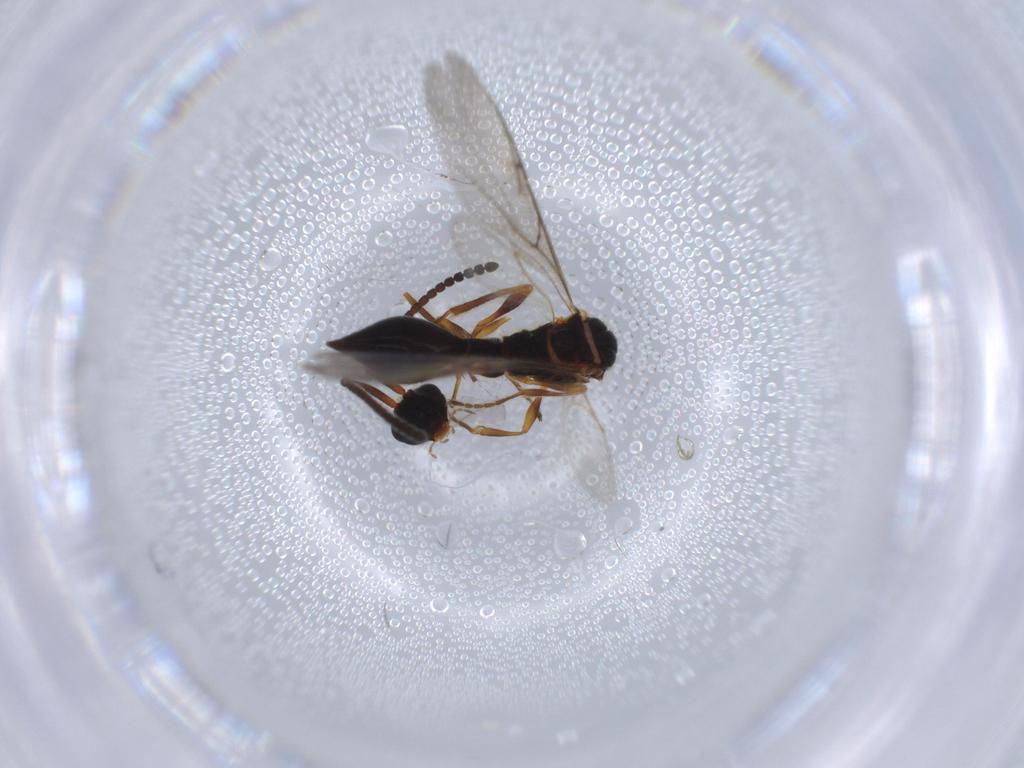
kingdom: Animalia
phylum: Arthropoda
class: Insecta
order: Hymenoptera
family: Diapriidae
